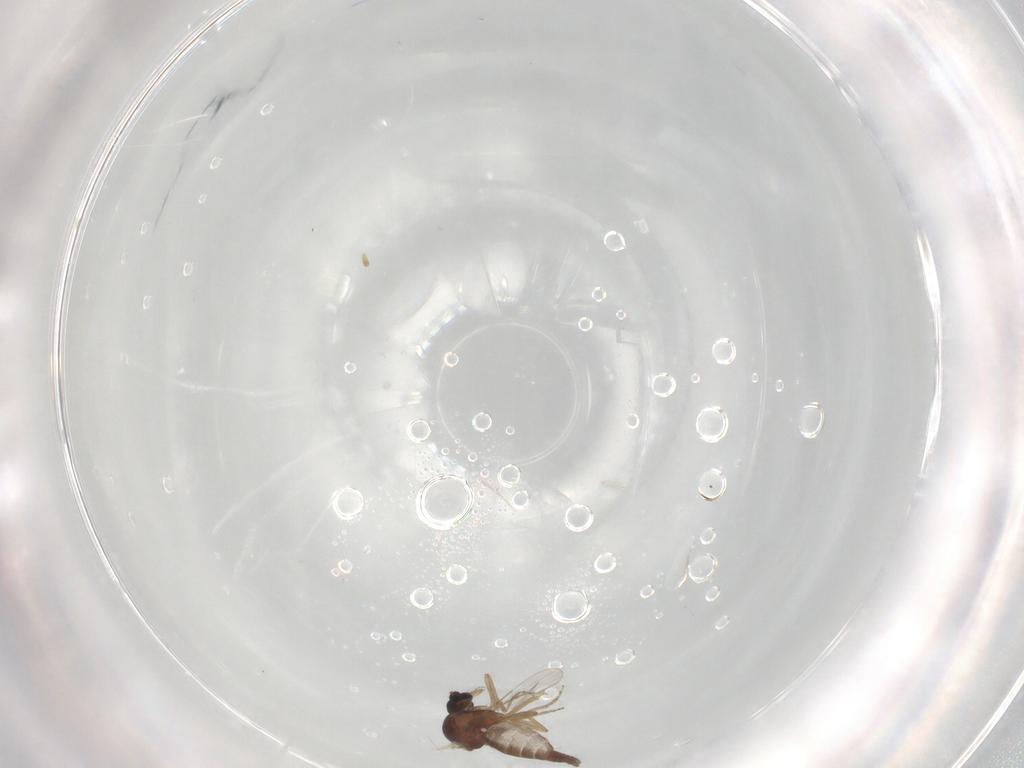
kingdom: Animalia
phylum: Arthropoda
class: Insecta
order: Diptera
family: Ceratopogonidae
